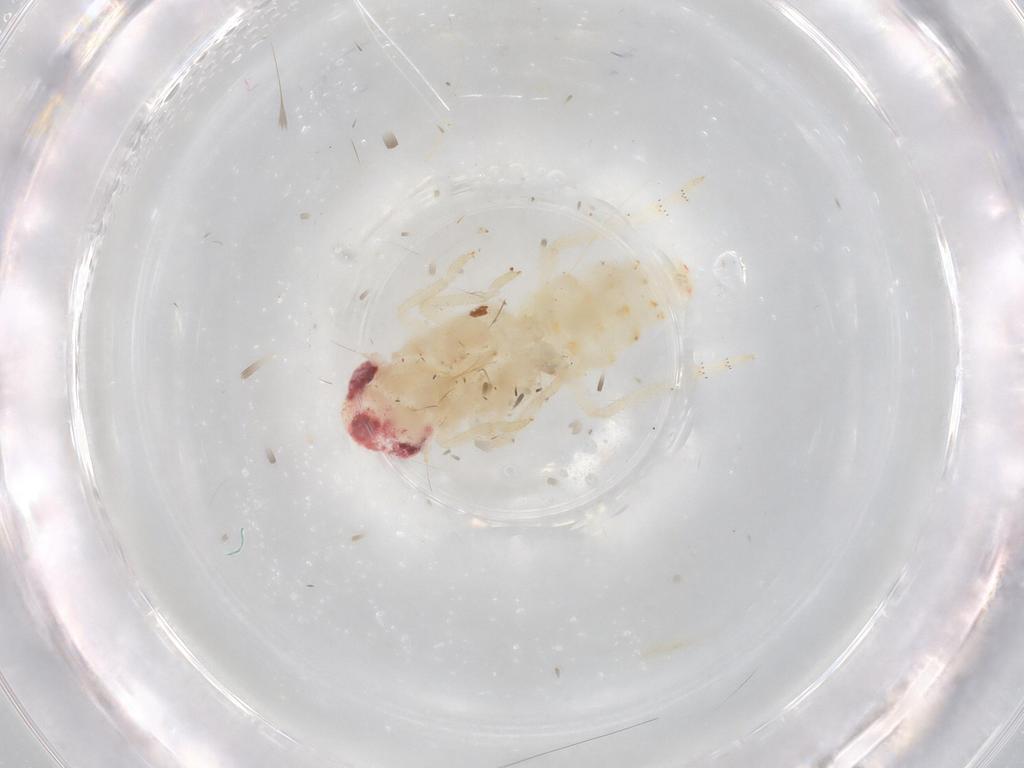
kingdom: Animalia
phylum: Arthropoda
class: Insecta
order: Hemiptera
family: Tropiduchidae
